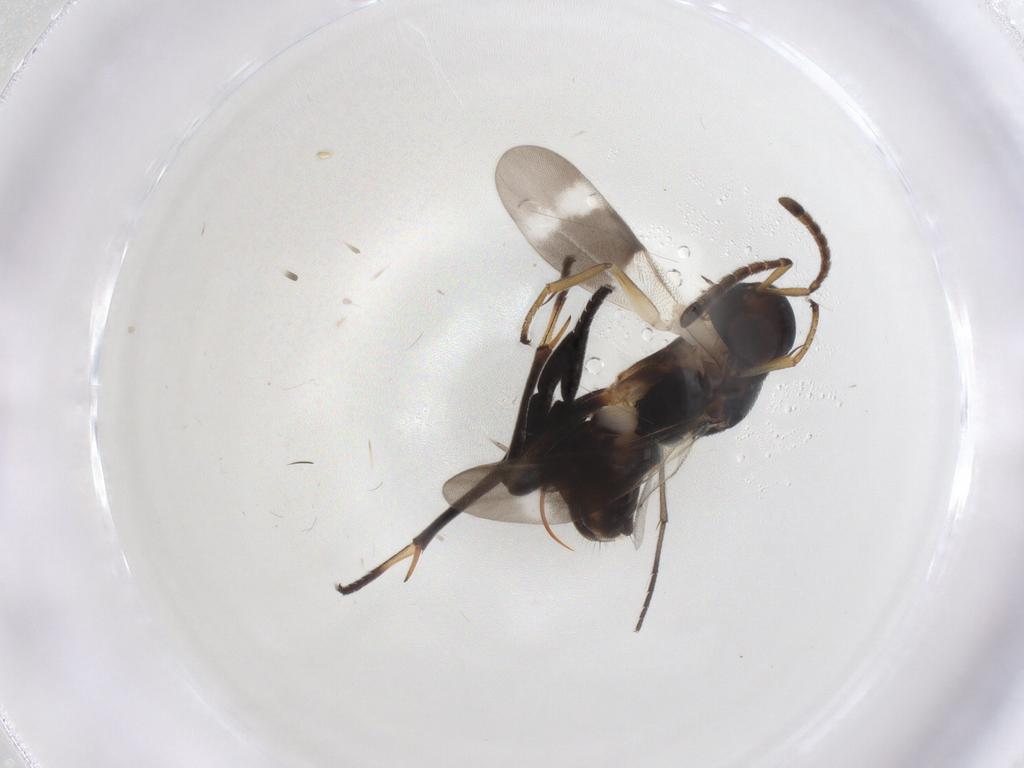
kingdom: Animalia
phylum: Arthropoda
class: Insecta
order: Diptera
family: Sciaridae
